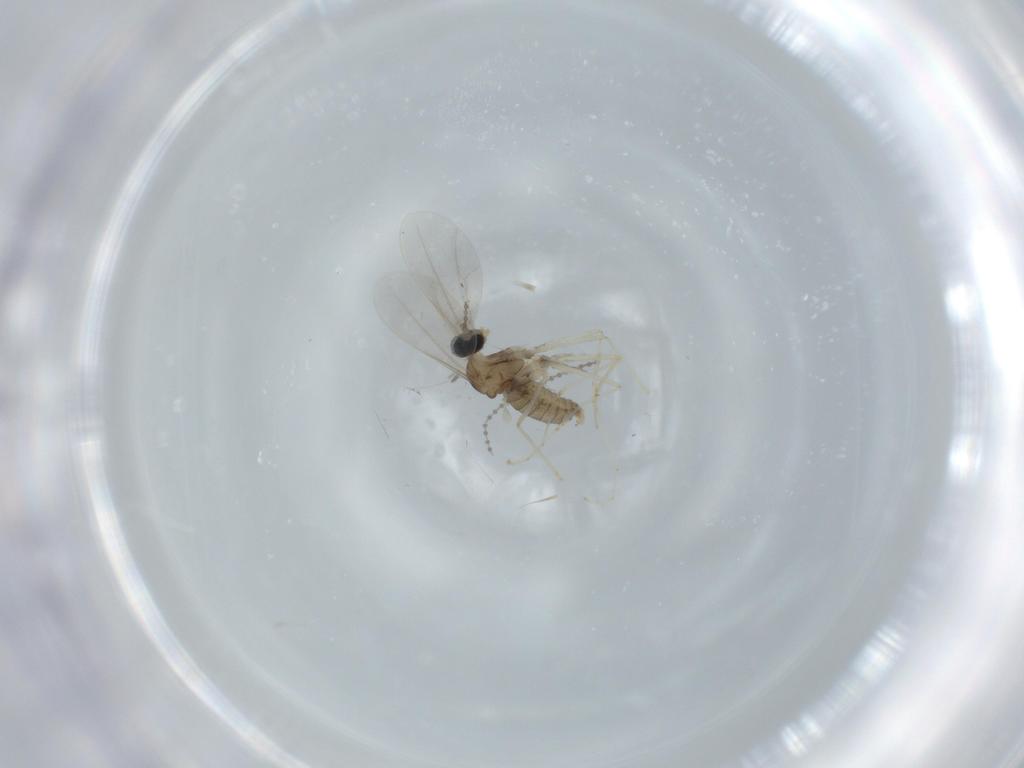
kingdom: Animalia
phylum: Arthropoda
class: Insecta
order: Diptera
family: Cecidomyiidae
